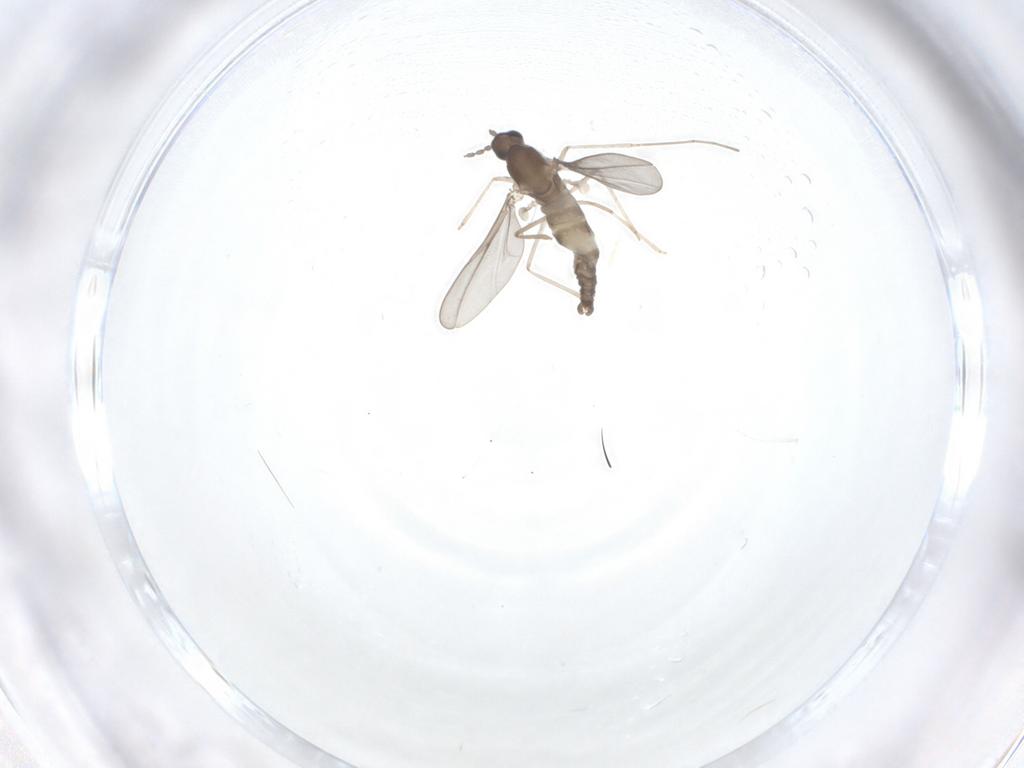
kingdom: Animalia
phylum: Arthropoda
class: Insecta
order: Diptera
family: Cecidomyiidae
